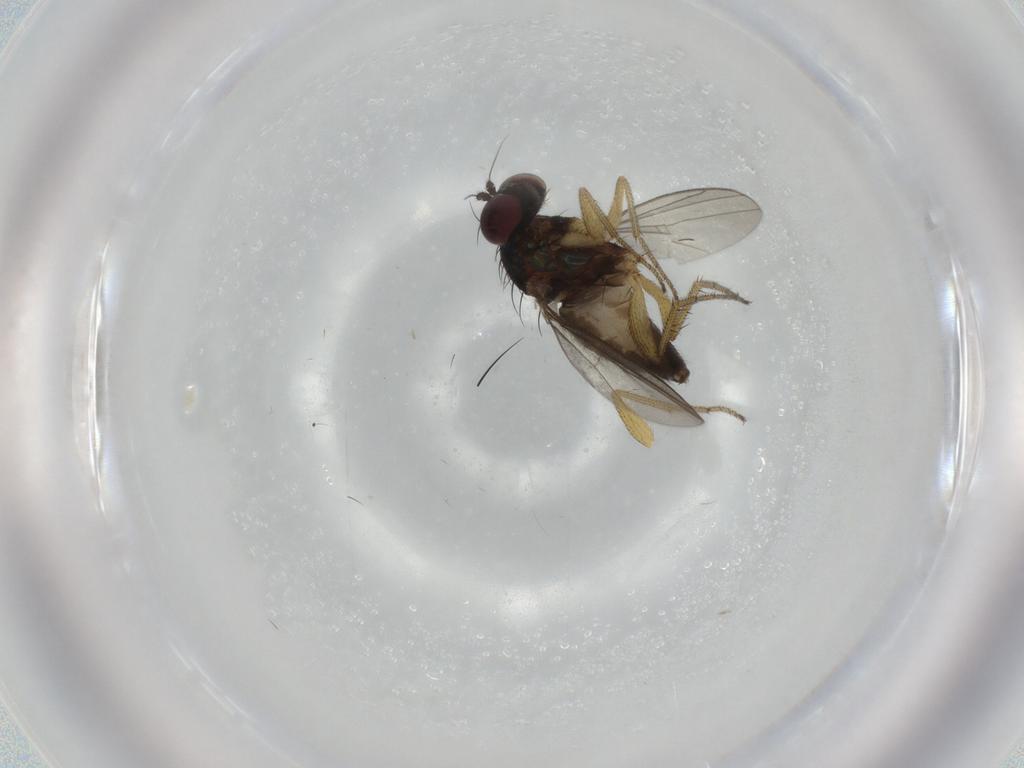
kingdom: Animalia
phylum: Arthropoda
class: Insecta
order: Diptera
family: Dolichopodidae
